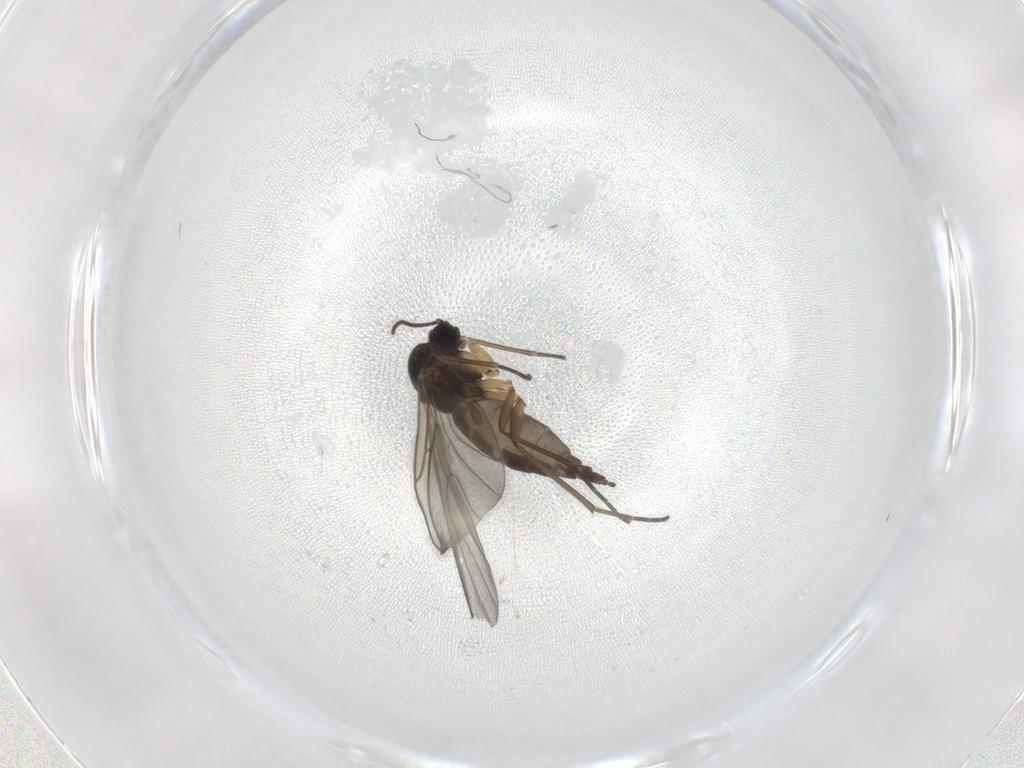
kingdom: Animalia
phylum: Arthropoda
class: Insecta
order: Diptera
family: Sciaridae
